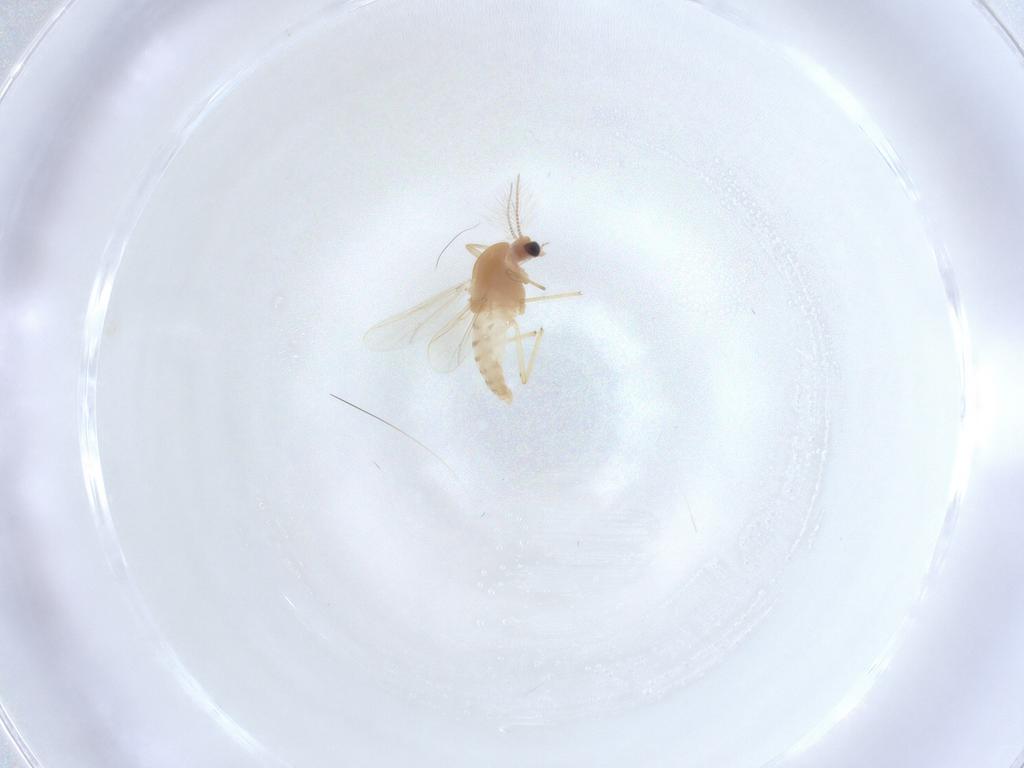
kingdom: Animalia
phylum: Arthropoda
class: Insecta
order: Diptera
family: Chironomidae
